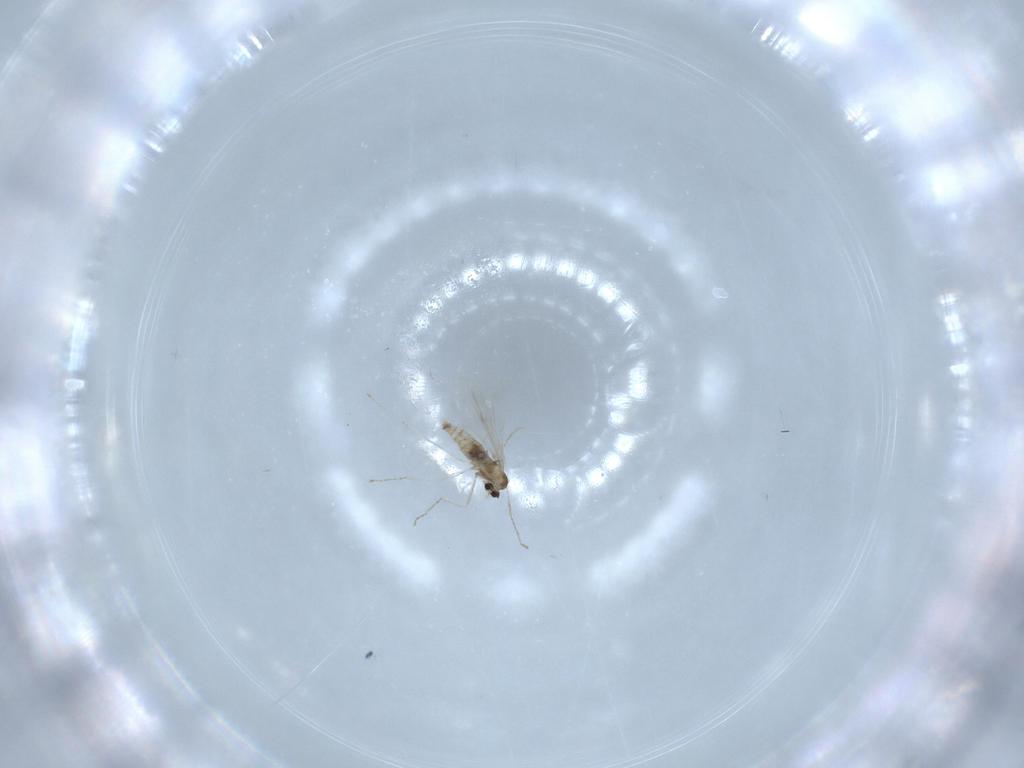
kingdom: Animalia
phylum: Arthropoda
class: Insecta
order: Diptera
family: Cecidomyiidae
